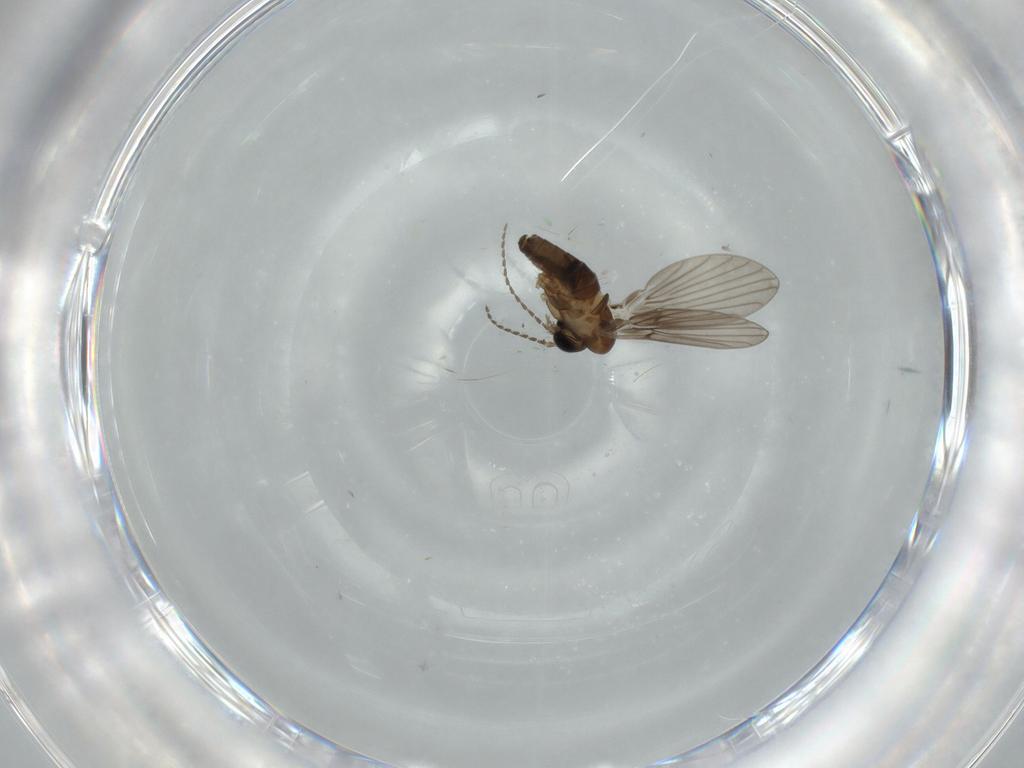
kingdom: Animalia
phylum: Arthropoda
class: Insecta
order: Diptera
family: Psychodidae
